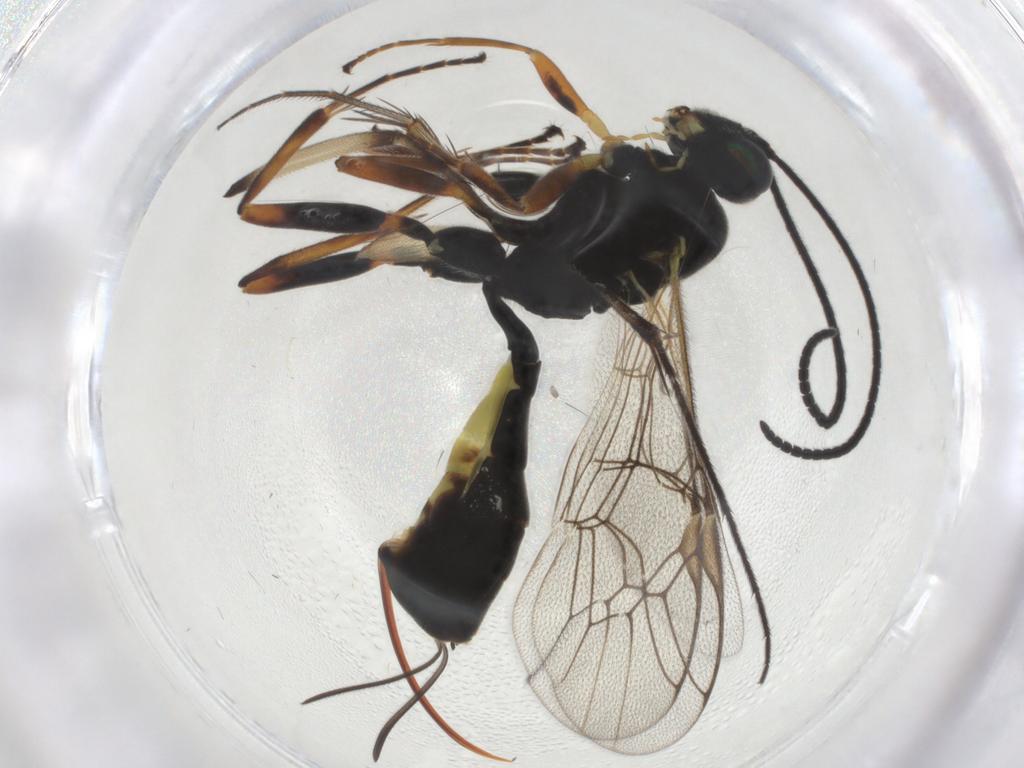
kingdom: Animalia
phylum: Arthropoda
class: Insecta
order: Hymenoptera
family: Ichneumonidae
